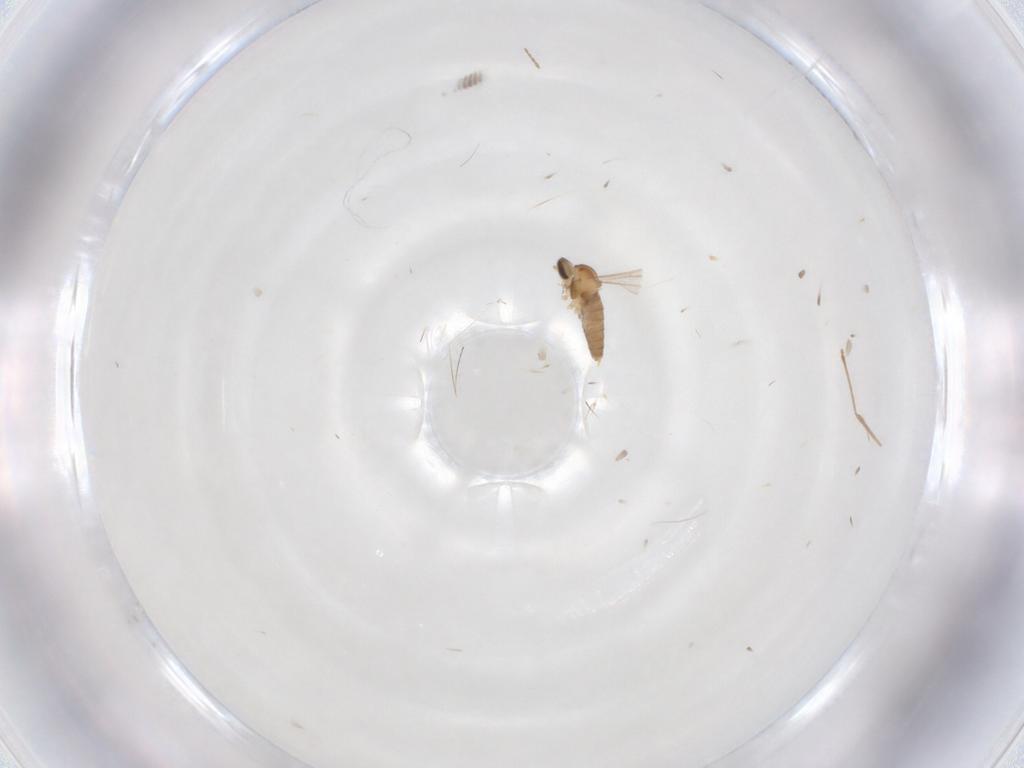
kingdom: Animalia
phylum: Arthropoda
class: Insecta
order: Diptera
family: Cecidomyiidae
